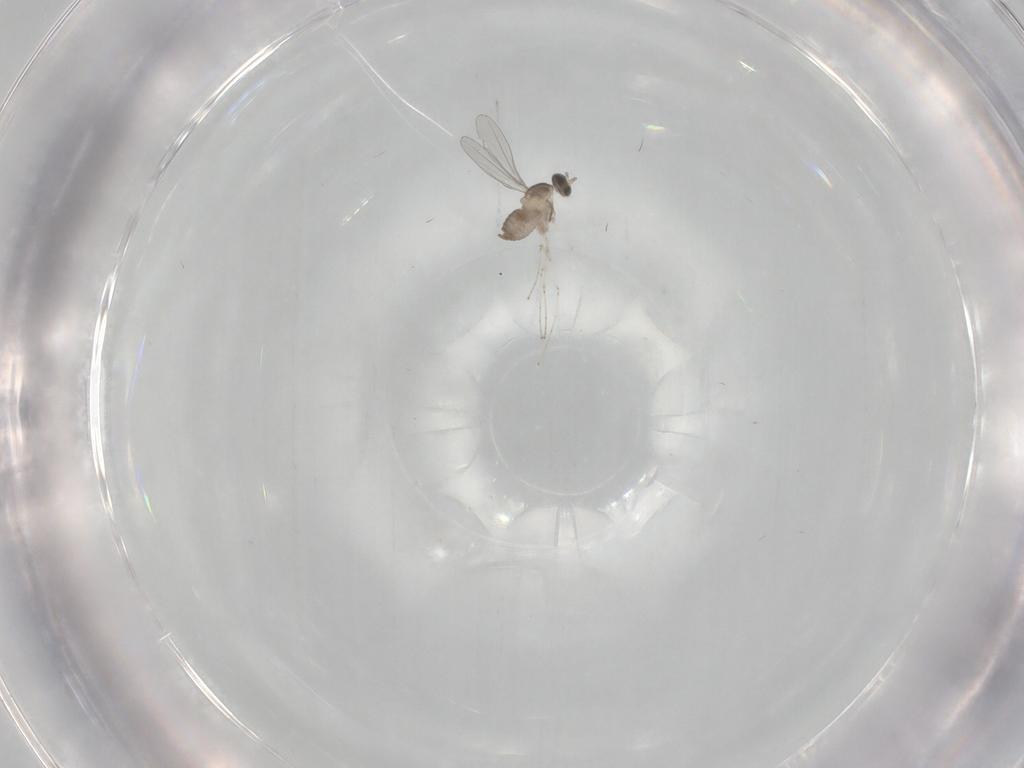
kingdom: Animalia
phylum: Arthropoda
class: Insecta
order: Diptera
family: Cecidomyiidae
